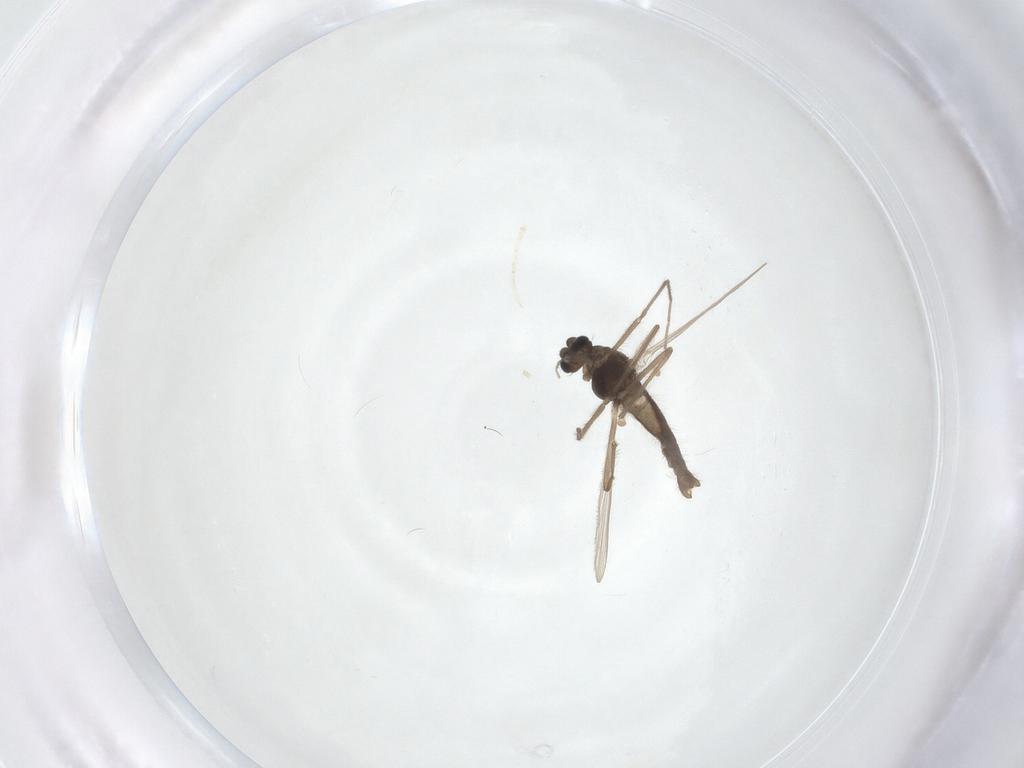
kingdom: Animalia
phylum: Arthropoda
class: Insecta
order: Diptera
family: Chironomidae
